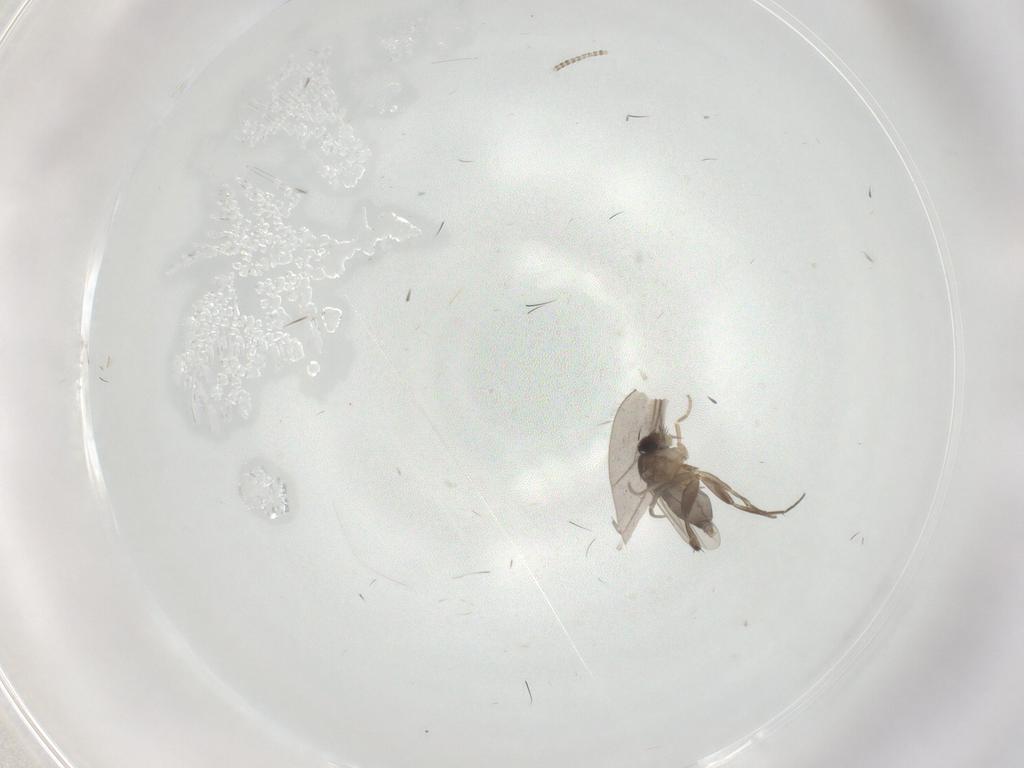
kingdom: Animalia
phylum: Arthropoda
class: Insecta
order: Diptera
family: Phoridae
